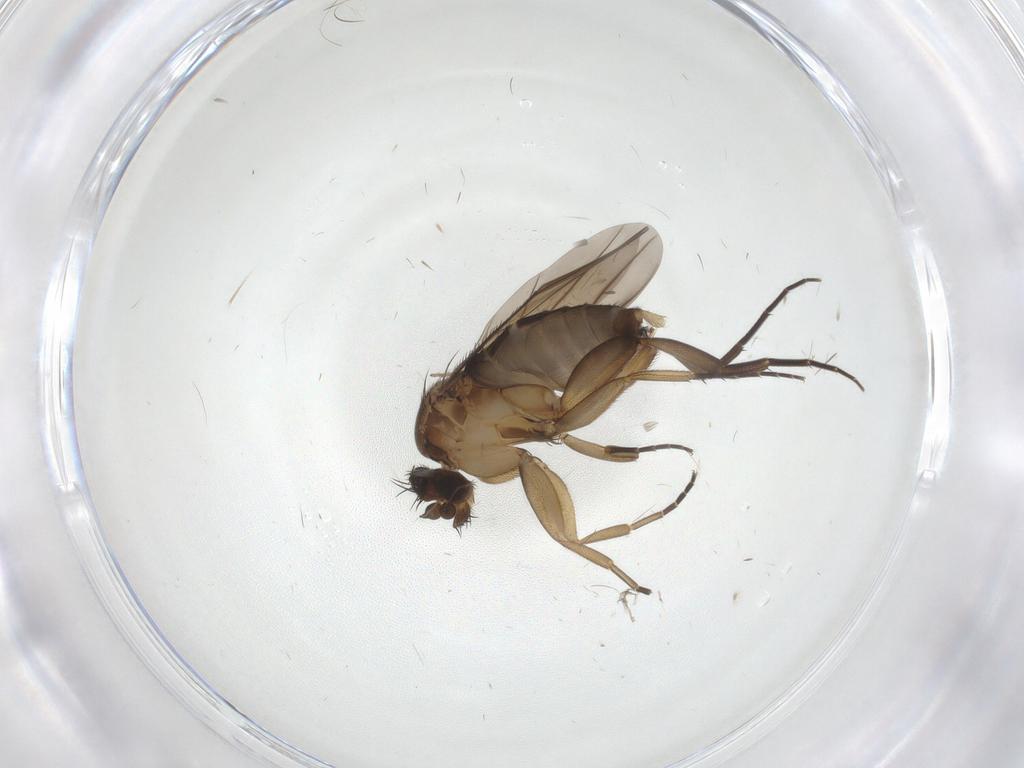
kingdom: Animalia
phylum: Arthropoda
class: Insecta
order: Diptera
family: Phoridae
